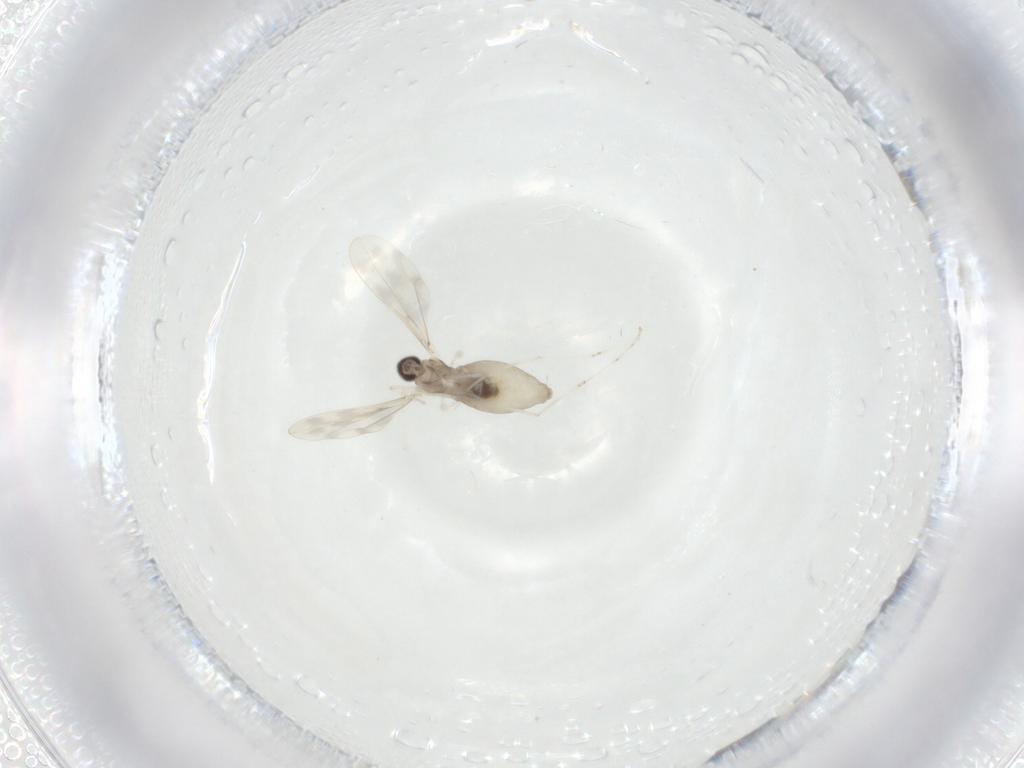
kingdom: Animalia
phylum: Arthropoda
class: Insecta
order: Diptera
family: Cecidomyiidae
